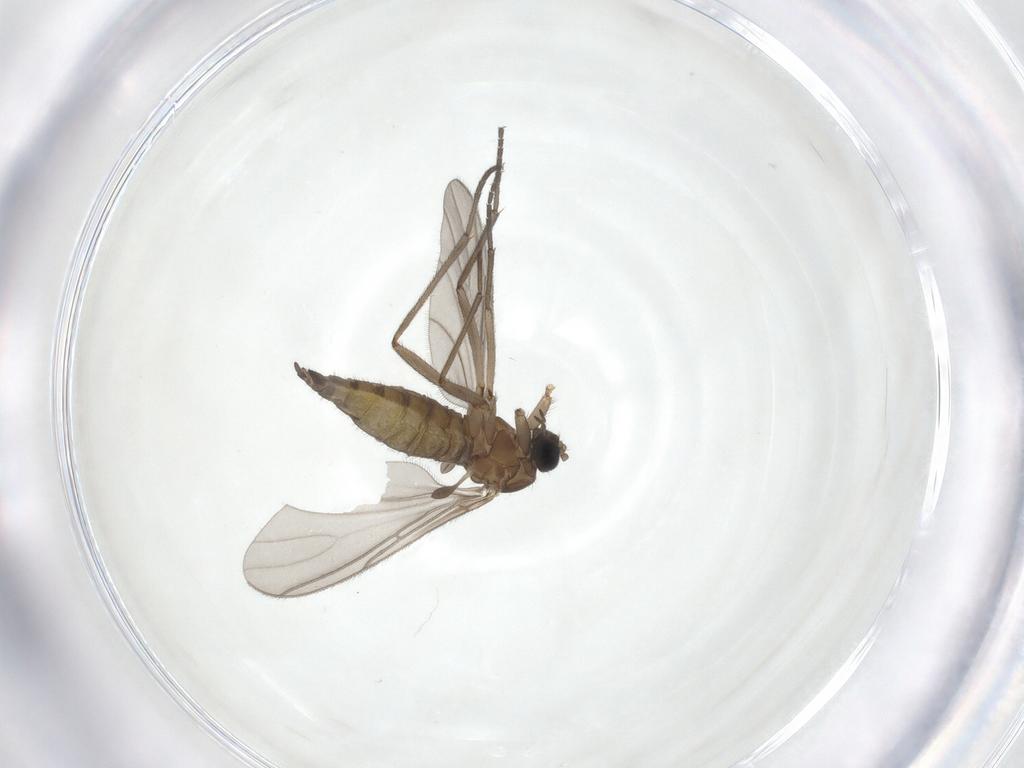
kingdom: Animalia
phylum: Arthropoda
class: Insecta
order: Diptera
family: Sciaridae
